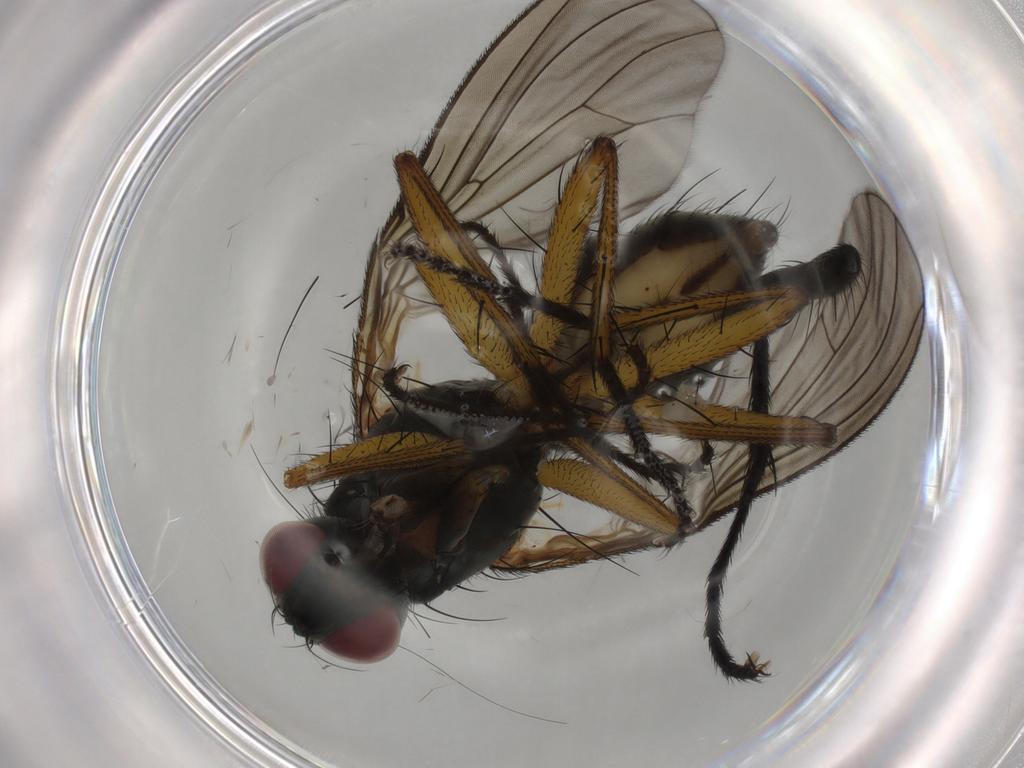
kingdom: Animalia
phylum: Arthropoda
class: Insecta
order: Diptera
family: Muscidae
